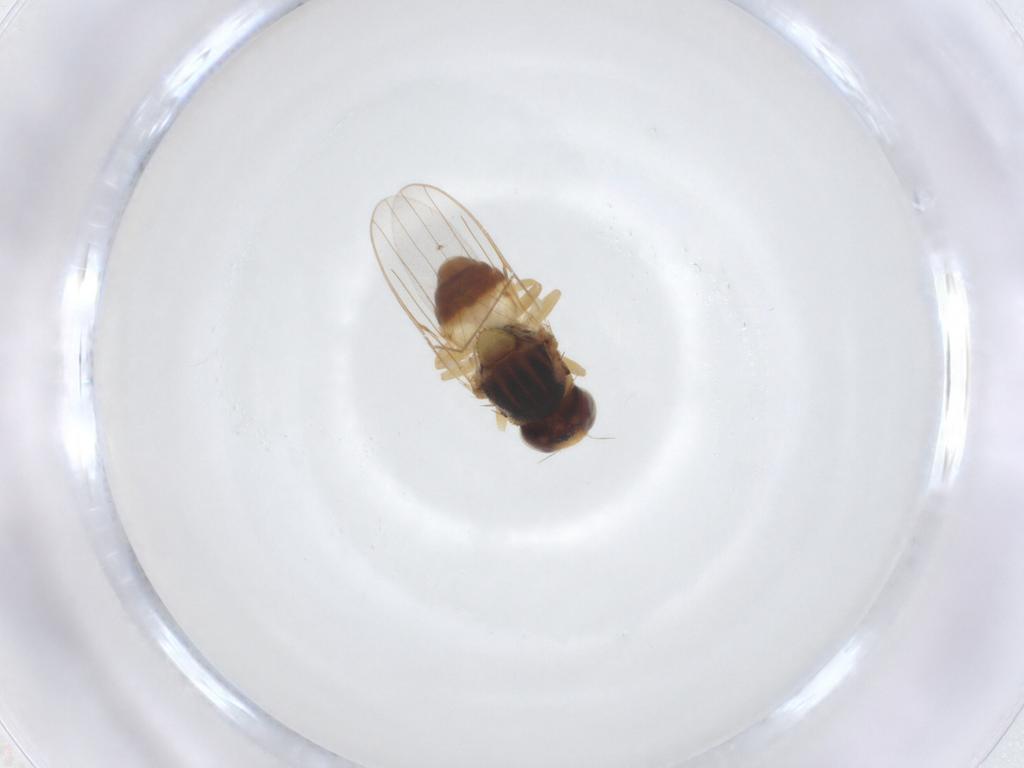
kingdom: Animalia
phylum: Arthropoda
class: Insecta
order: Diptera
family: Chloropidae
